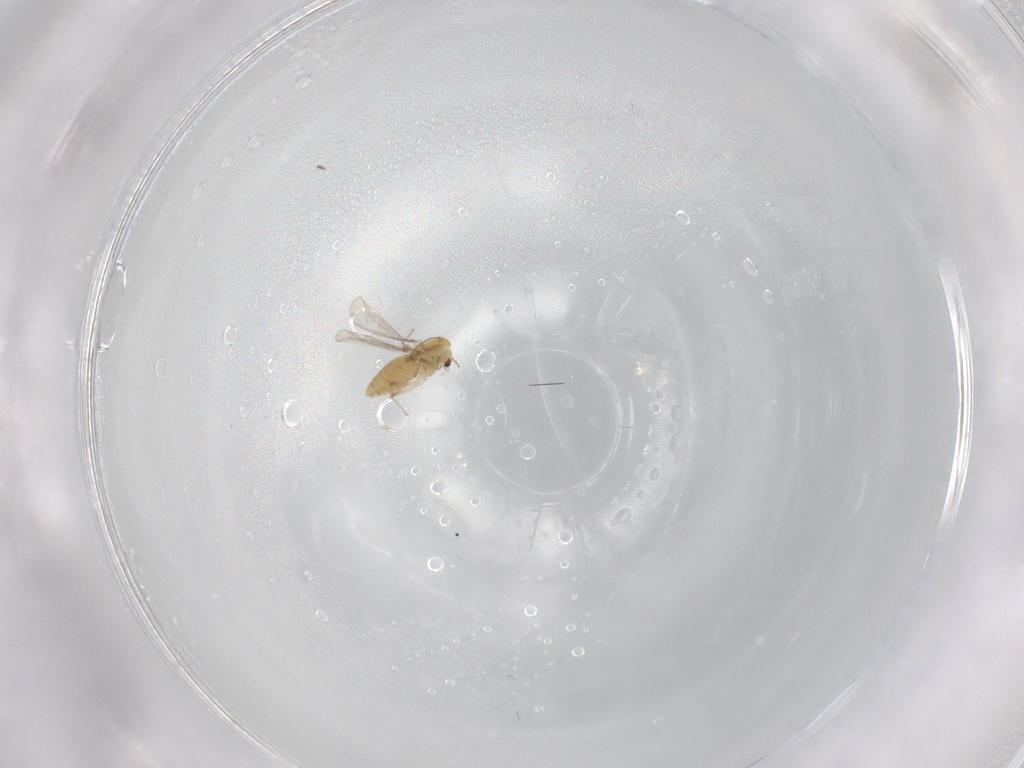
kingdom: Animalia
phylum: Arthropoda
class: Insecta
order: Diptera
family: Chironomidae
